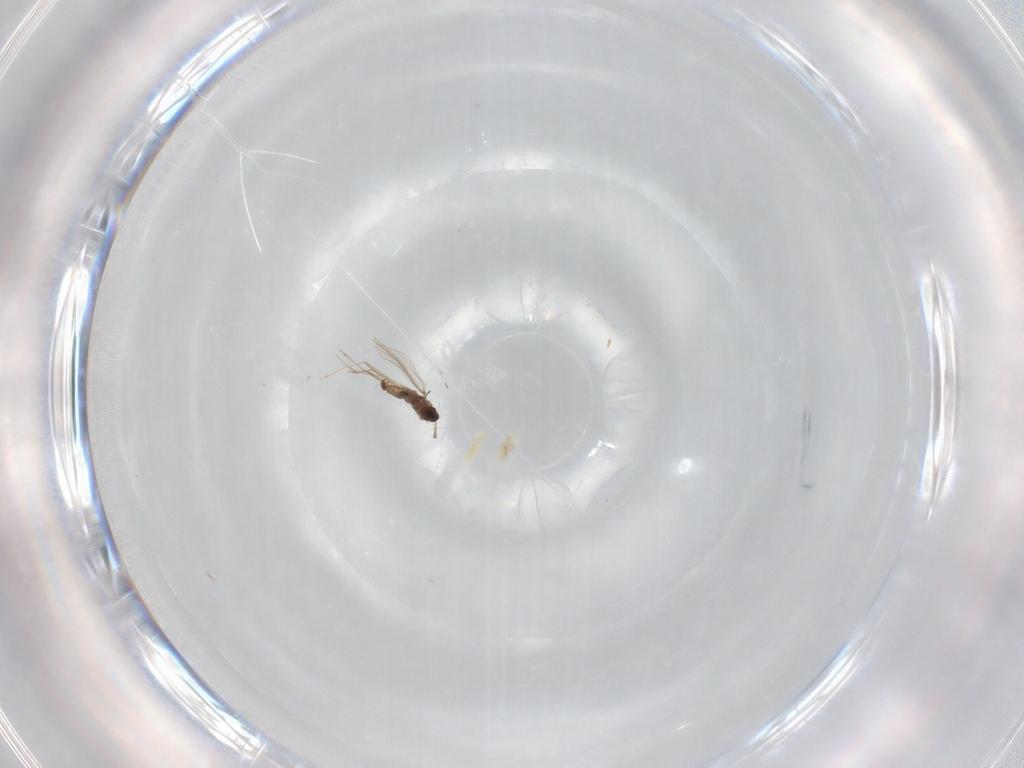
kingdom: Animalia
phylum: Arthropoda
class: Insecta
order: Diptera
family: Glossinidae
